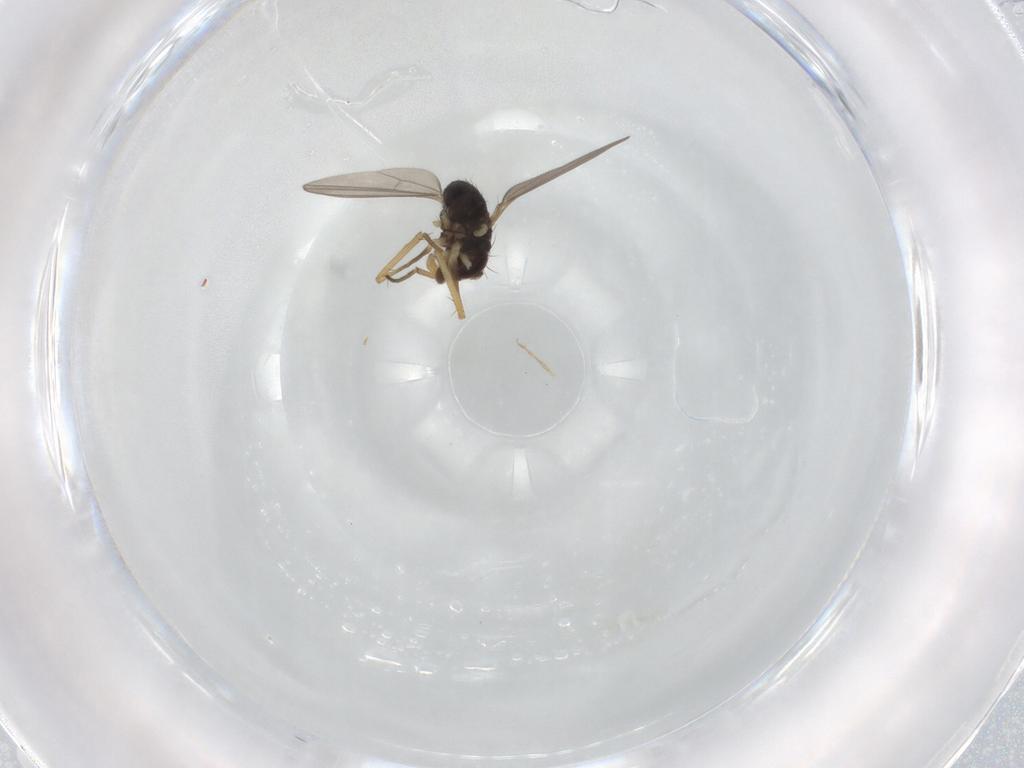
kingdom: Animalia
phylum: Arthropoda
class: Insecta
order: Diptera
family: Dolichopodidae
